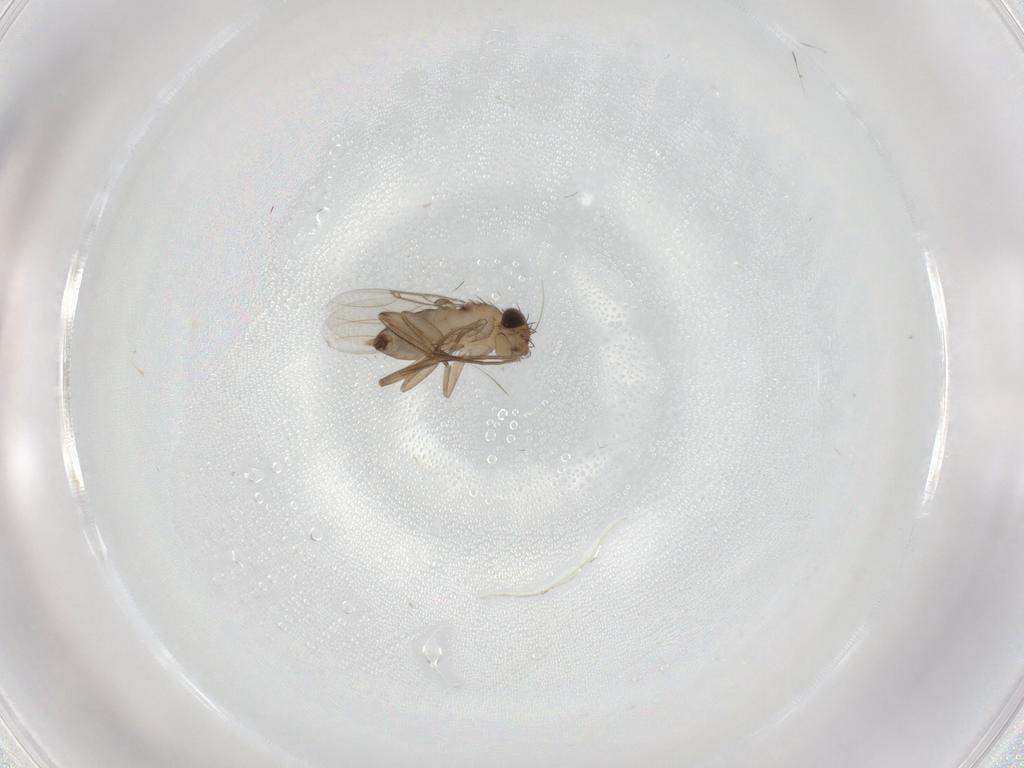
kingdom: Animalia
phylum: Arthropoda
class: Insecta
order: Diptera
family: Phoridae
